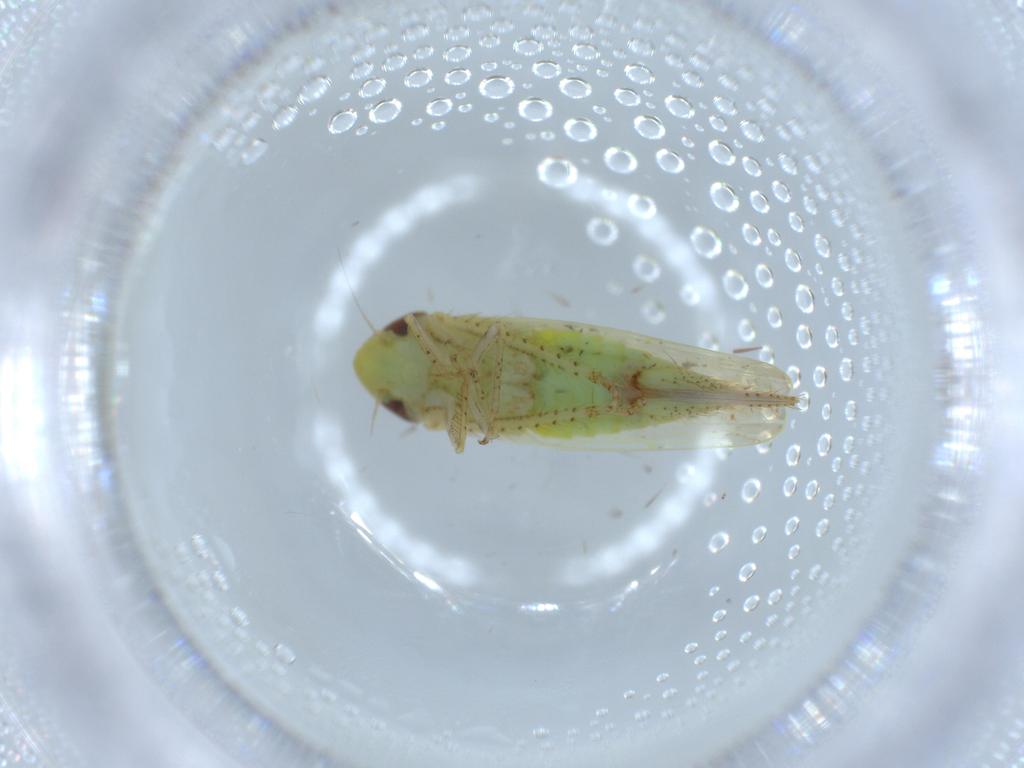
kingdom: Animalia
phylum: Arthropoda
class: Insecta
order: Hemiptera
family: Cicadellidae
